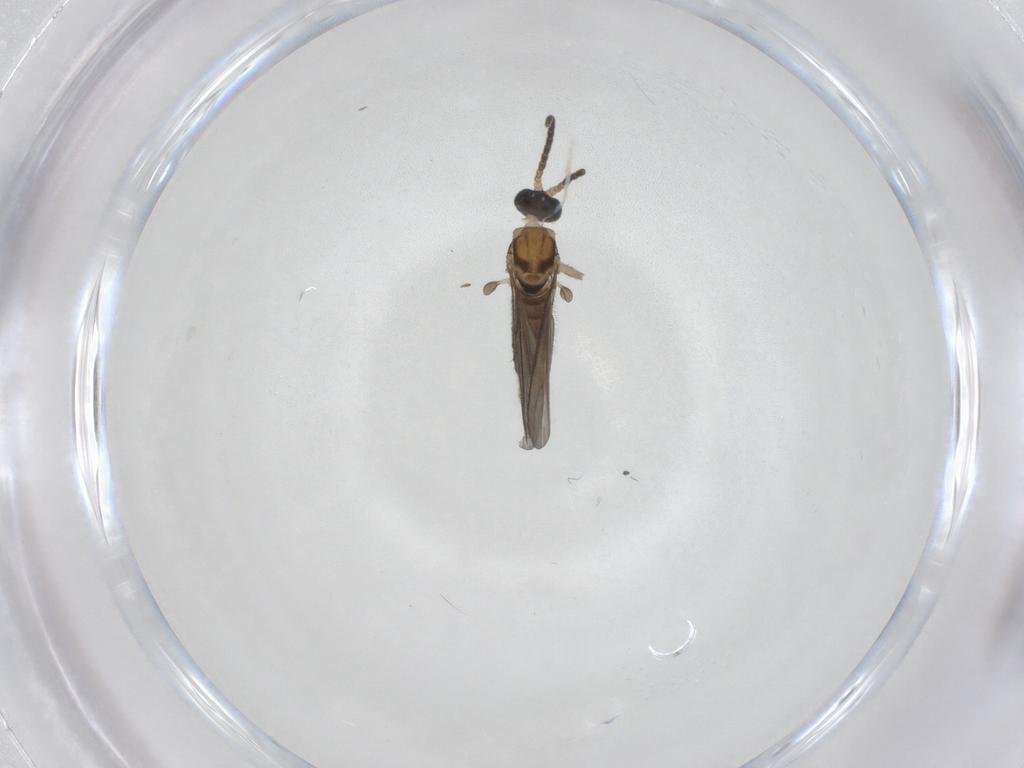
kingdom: Animalia
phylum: Arthropoda
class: Insecta
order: Diptera
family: Sciaridae
